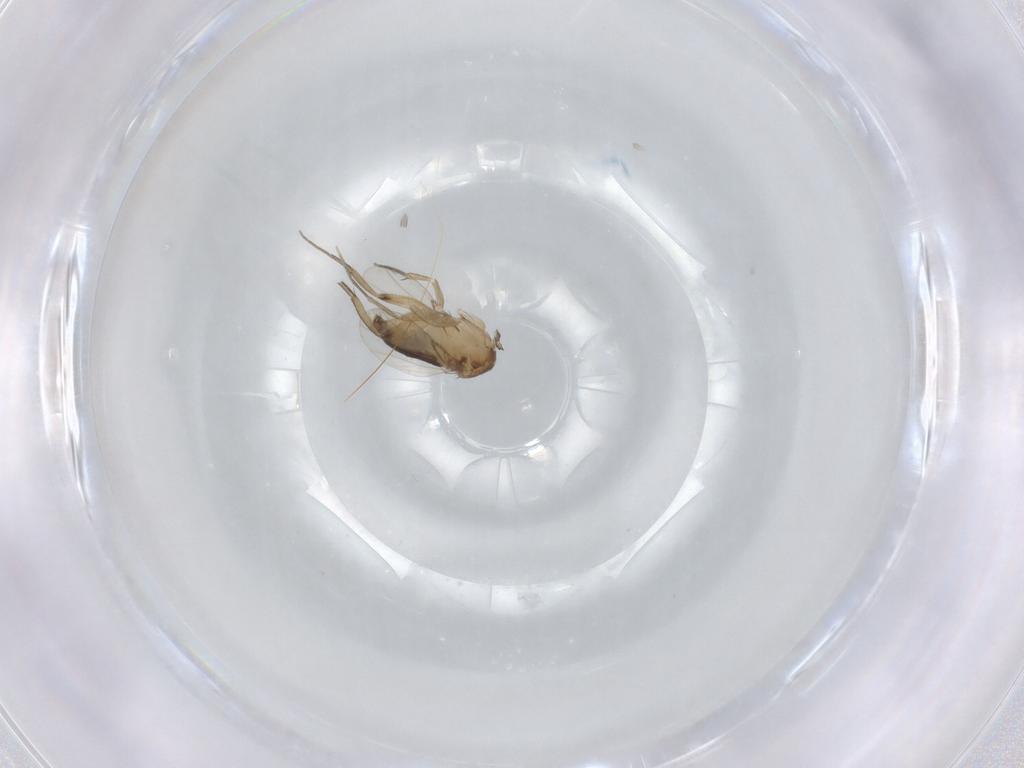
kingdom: Animalia
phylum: Arthropoda
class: Insecta
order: Diptera
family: Phoridae
